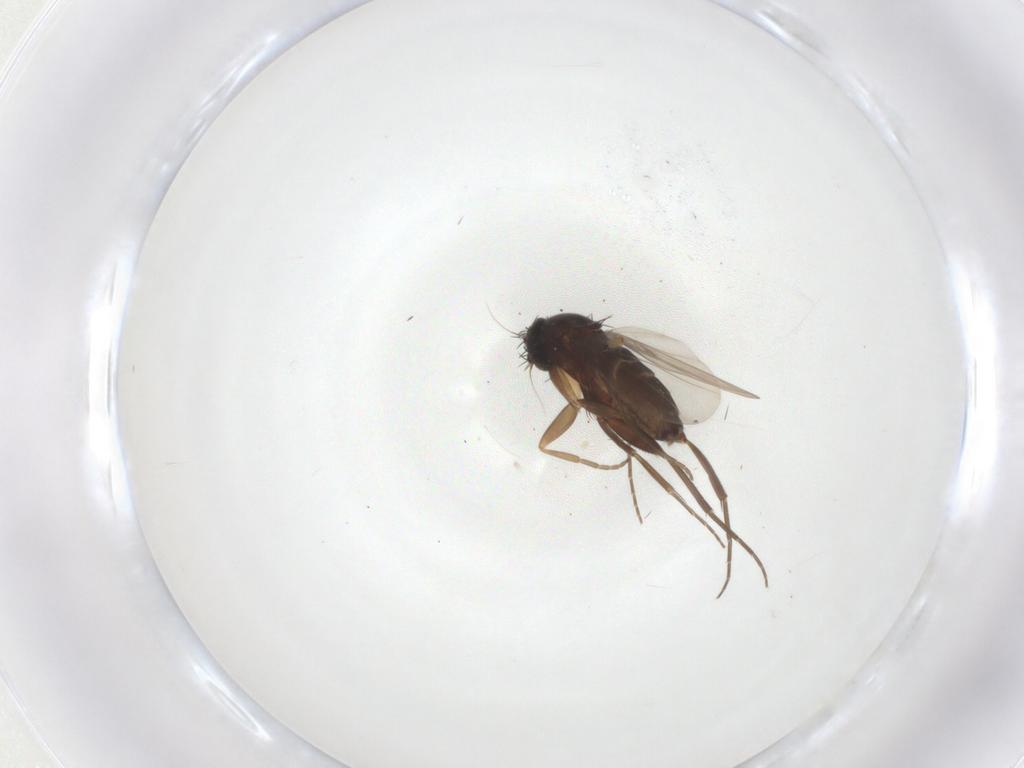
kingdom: Animalia
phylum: Arthropoda
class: Insecta
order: Diptera
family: Phoridae
